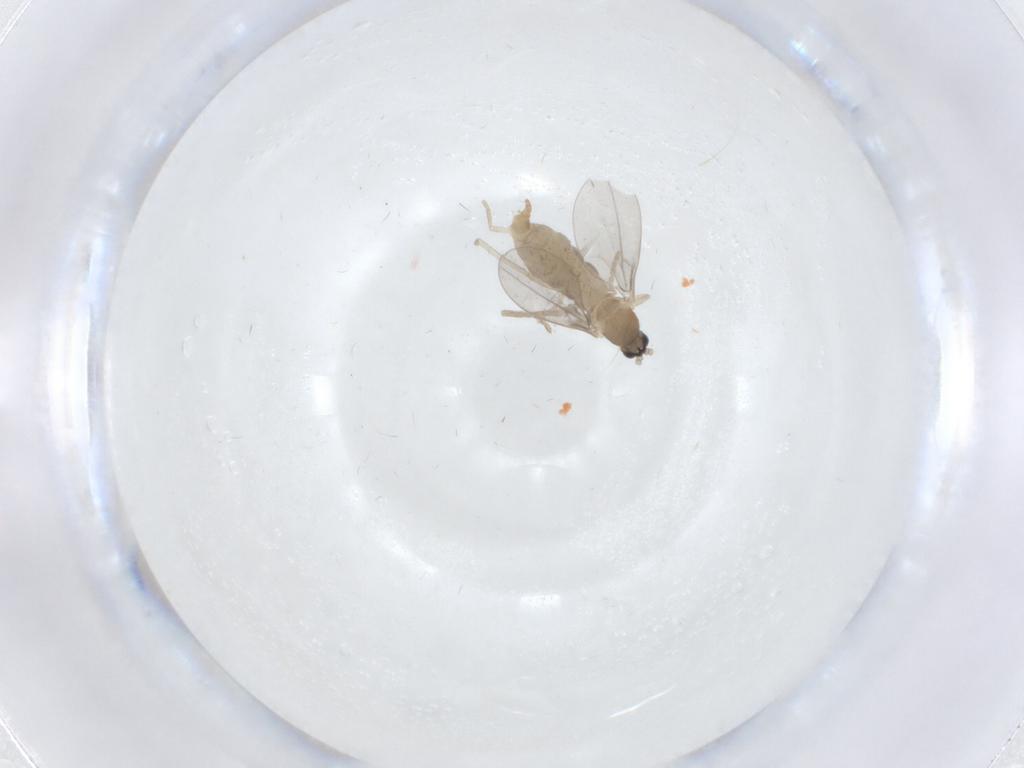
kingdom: Animalia
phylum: Arthropoda
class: Insecta
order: Diptera
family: Cecidomyiidae
